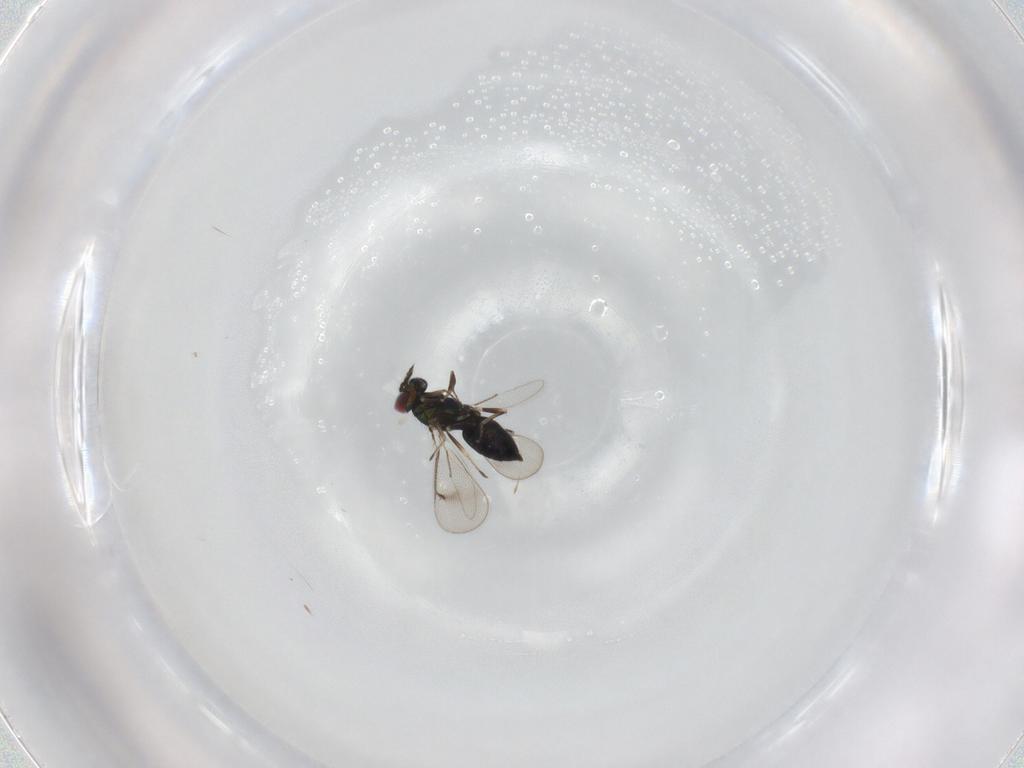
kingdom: Animalia
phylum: Arthropoda
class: Insecta
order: Hymenoptera
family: Eulophidae
